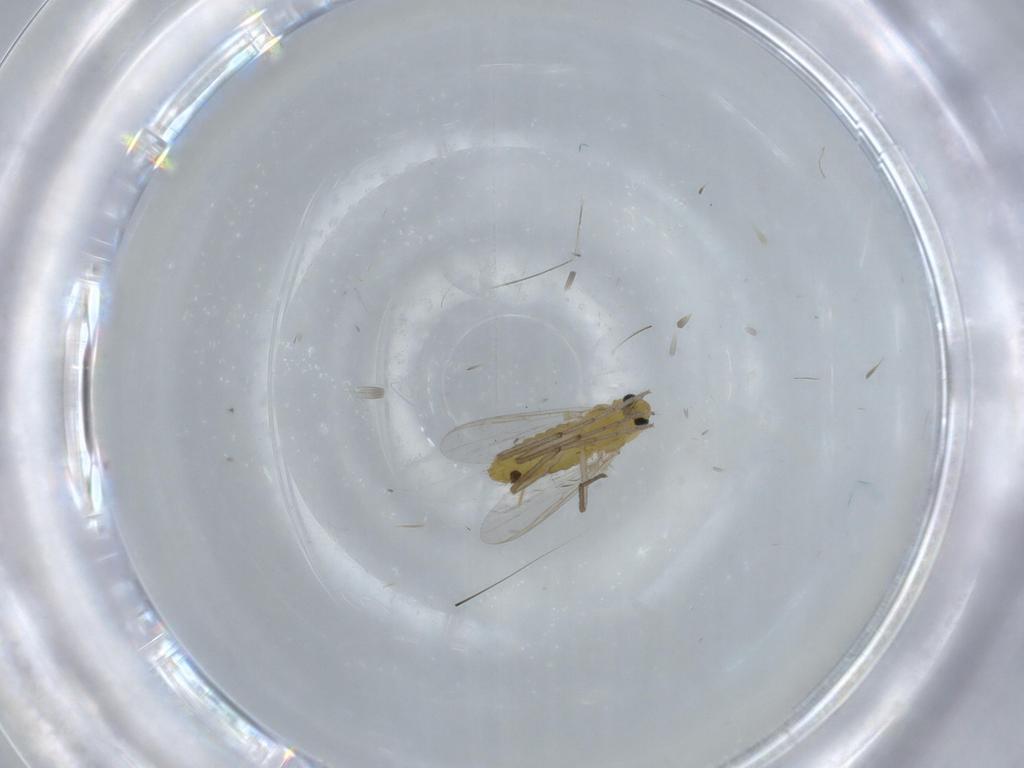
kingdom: Animalia
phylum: Arthropoda
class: Insecta
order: Diptera
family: Chironomidae
